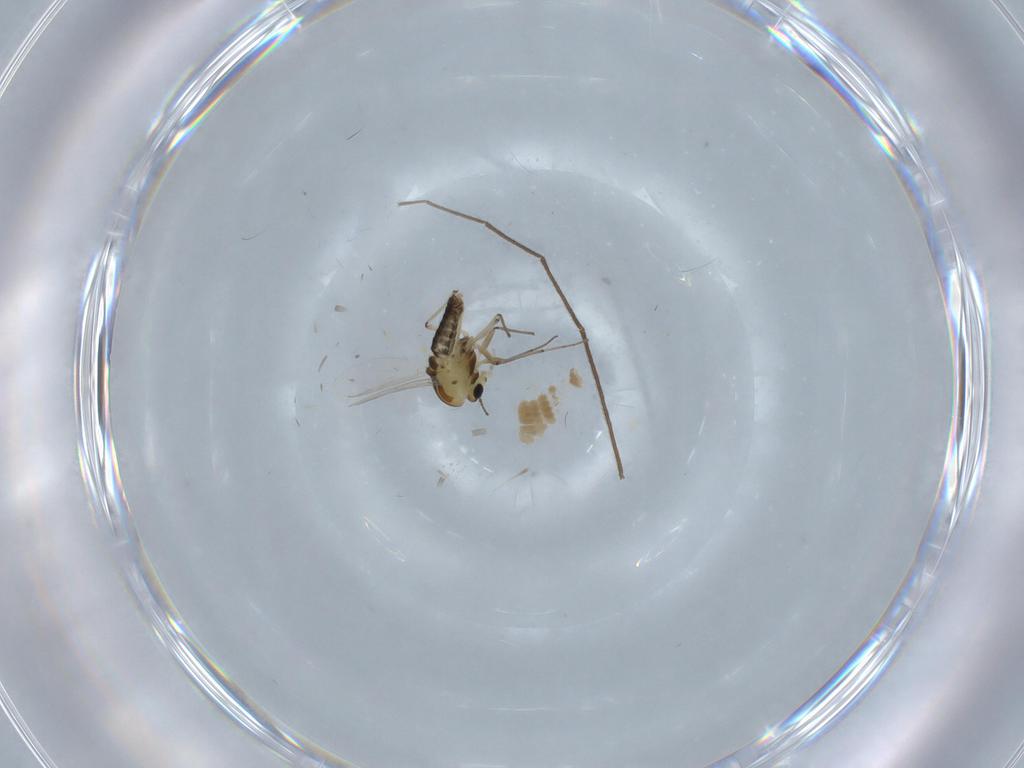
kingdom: Animalia
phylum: Arthropoda
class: Insecta
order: Diptera
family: Chironomidae
